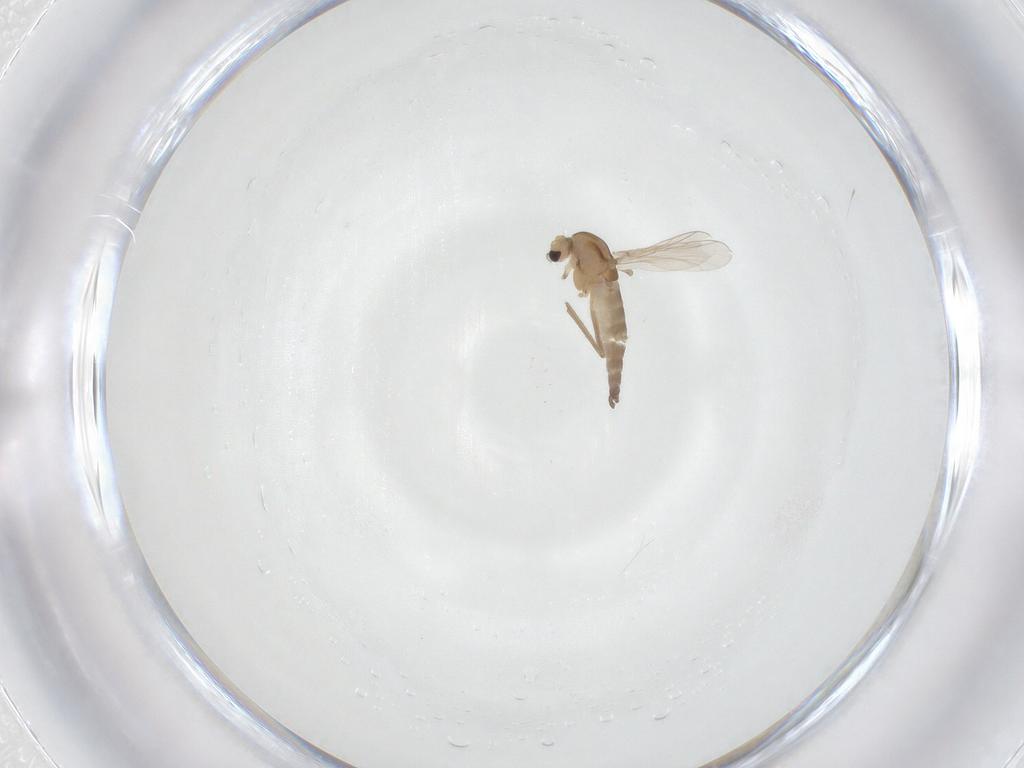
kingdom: Animalia
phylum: Arthropoda
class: Insecta
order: Diptera
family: Chironomidae
